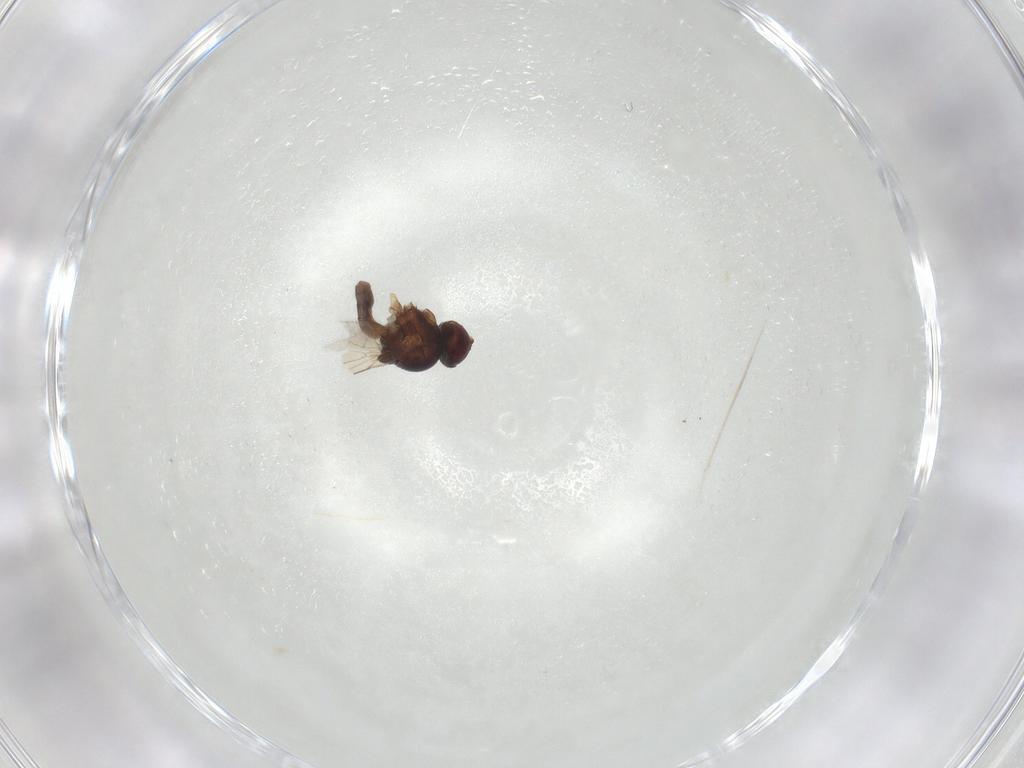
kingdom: Animalia
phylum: Arthropoda
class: Insecta
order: Diptera
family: Chloropidae
